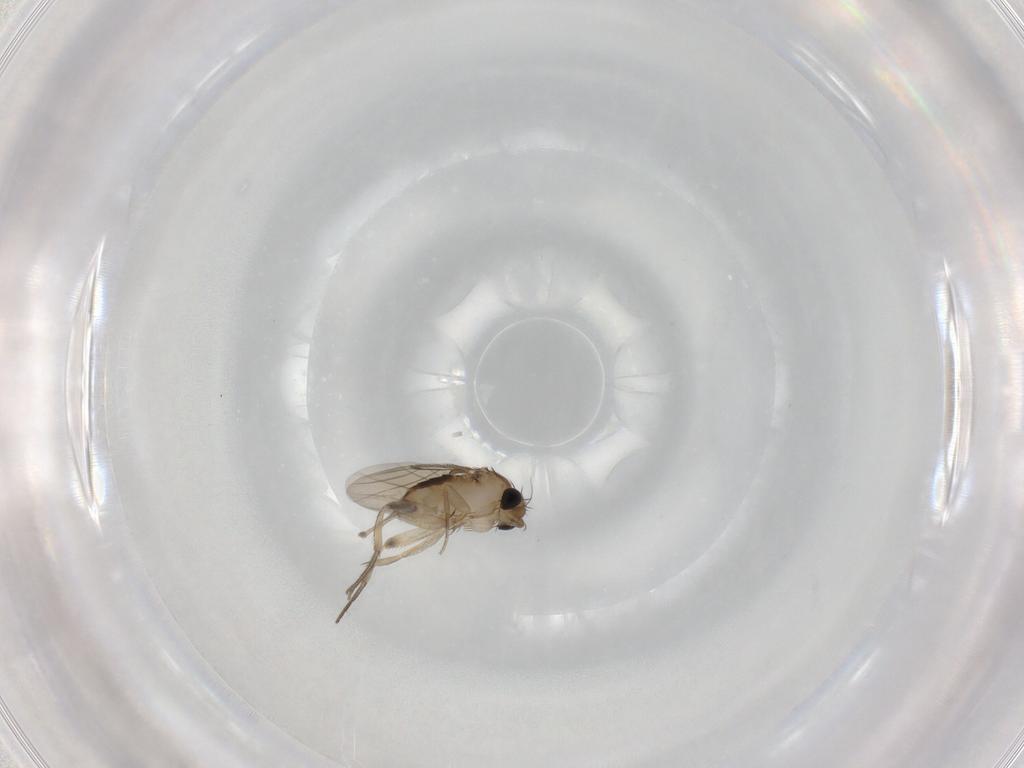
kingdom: Animalia
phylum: Arthropoda
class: Insecta
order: Diptera
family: Phoridae
